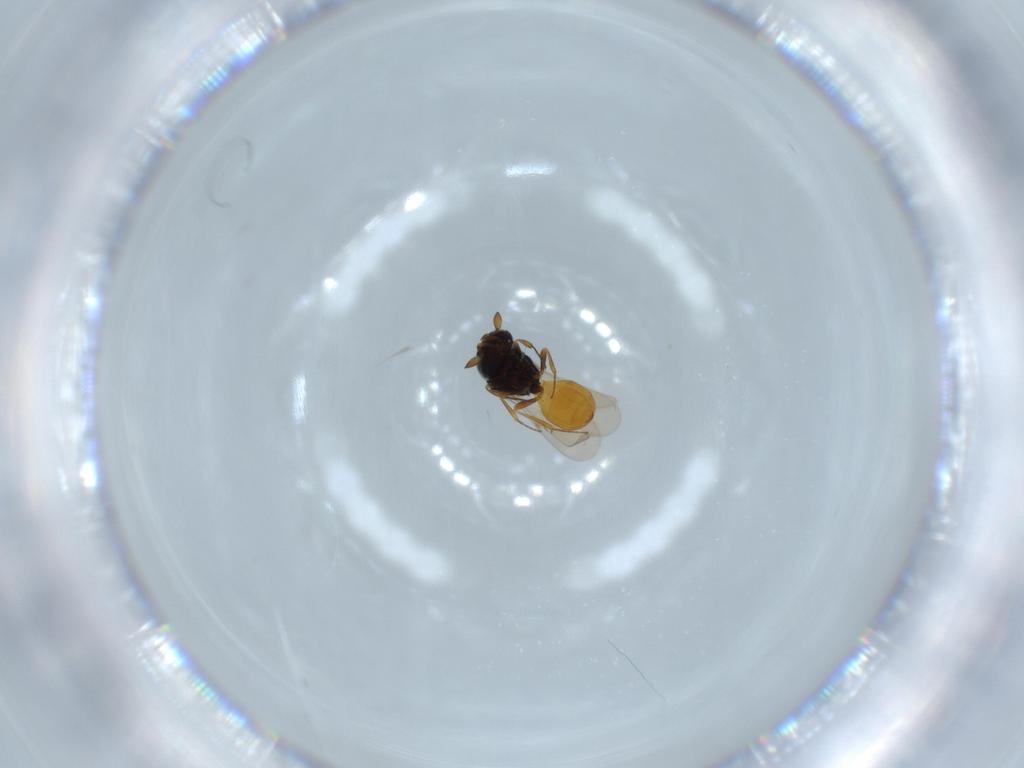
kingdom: Animalia
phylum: Arthropoda
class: Insecta
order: Hymenoptera
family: Scelionidae
